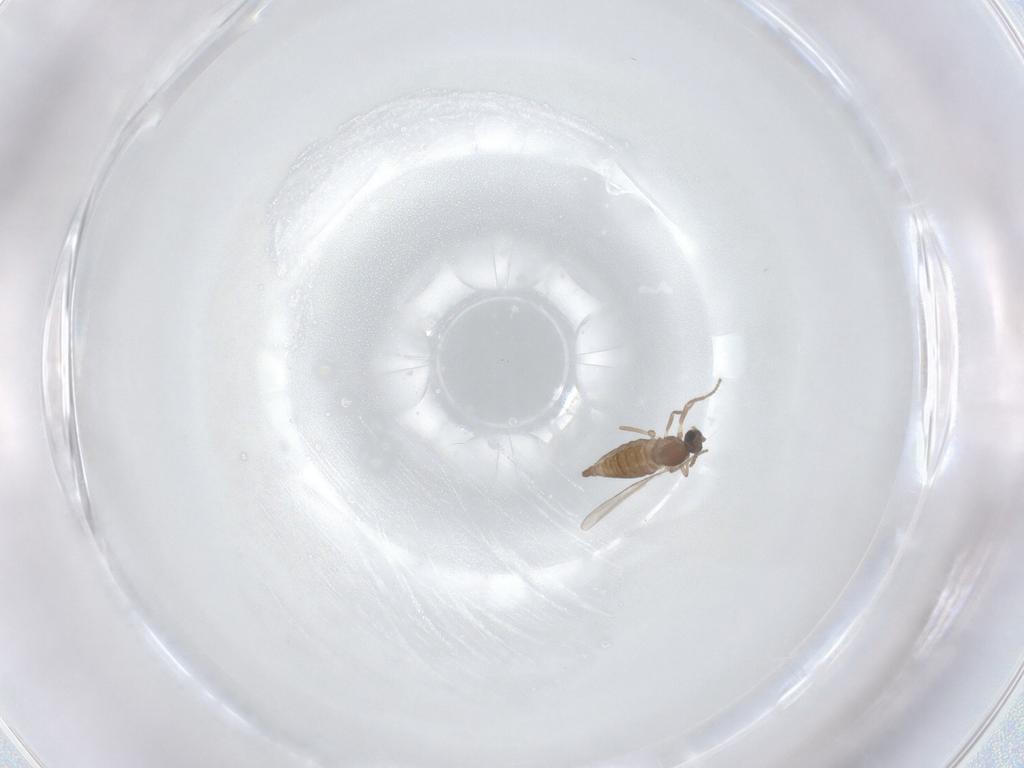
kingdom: Animalia
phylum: Arthropoda
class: Insecta
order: Diptera
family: Cecidomyiidae
